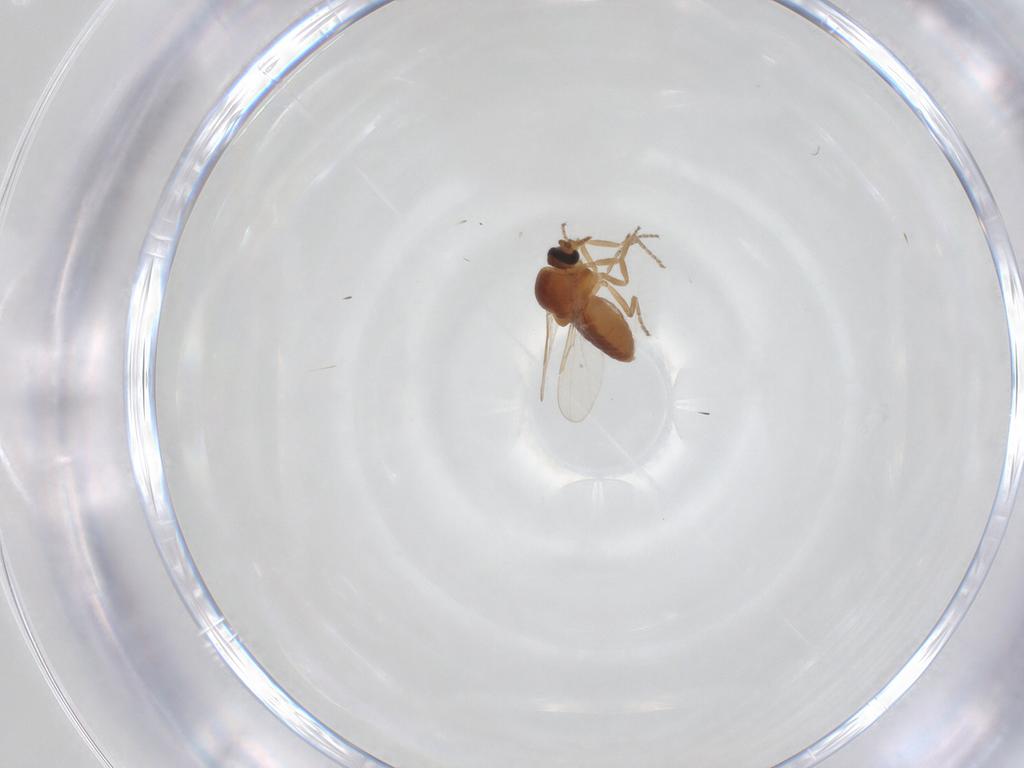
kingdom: Animalia
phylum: Arthropoda
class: Insecta
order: Diptera
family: Ceratopogonidae
